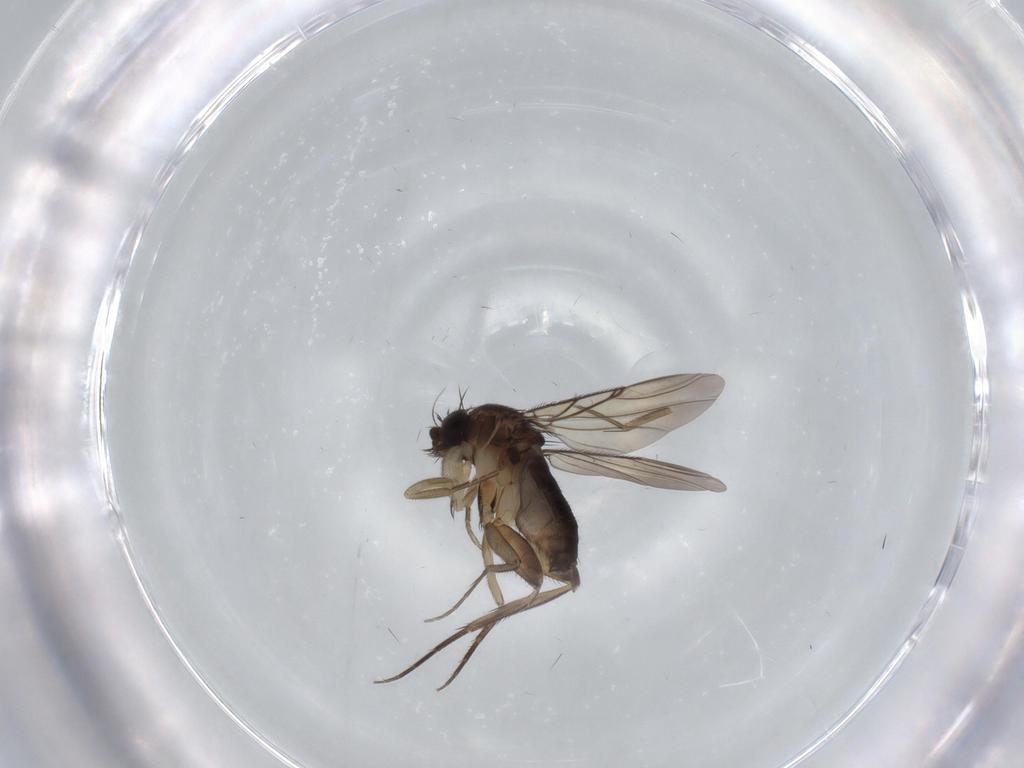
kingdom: Animalia
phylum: Arthropoda
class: Insecta
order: Diptera
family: Phoridae
